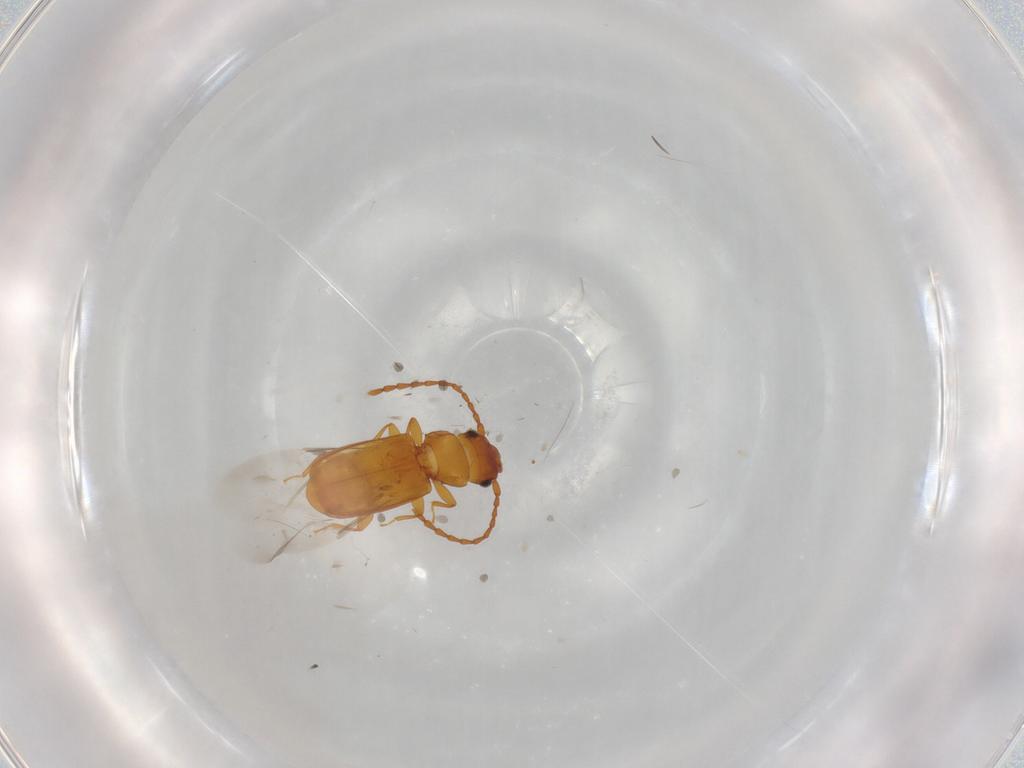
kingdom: Animalia
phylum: Arthropoda
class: Insecta
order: Coleoptera
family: Laemophloeidae
